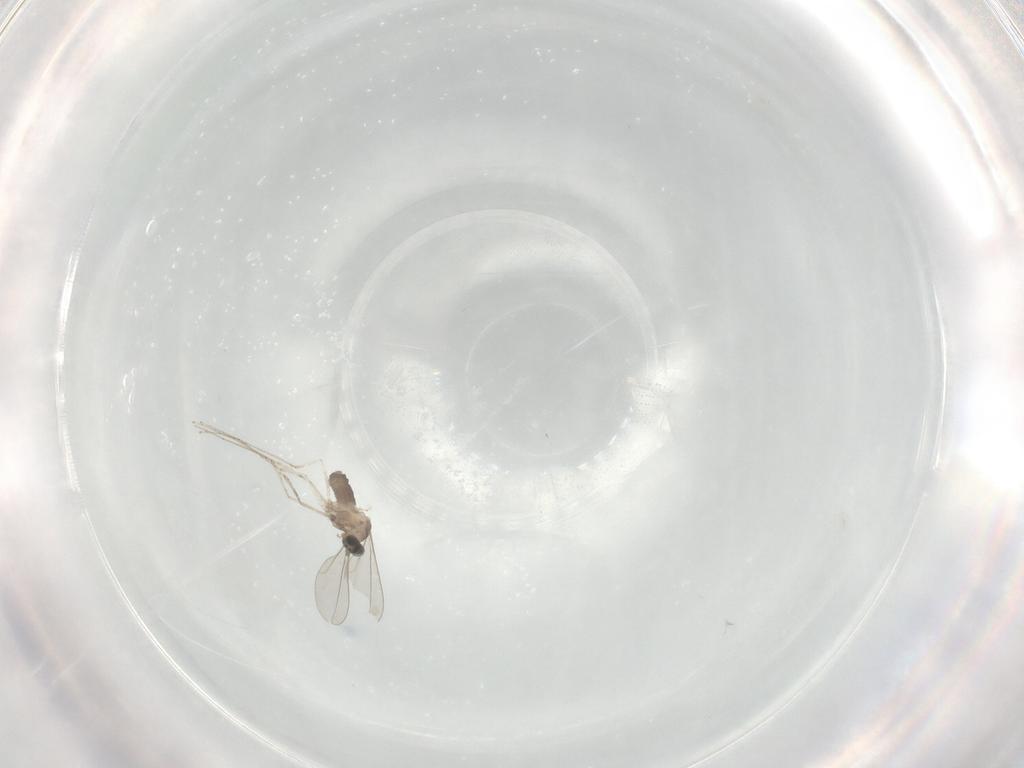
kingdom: Animalia
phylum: Arthropoda
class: Insecta
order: Diptera
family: Cecidomyiidae
